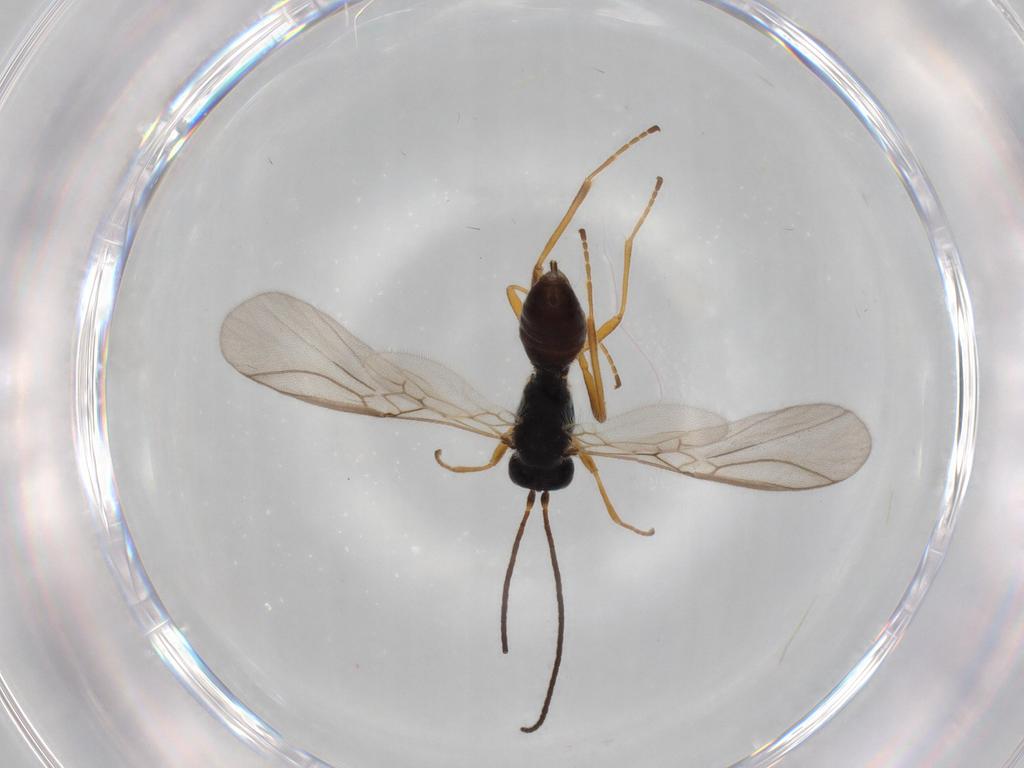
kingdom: Animalia
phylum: Arthropoda
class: Insecta
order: Hymenoptera
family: Braconidae
